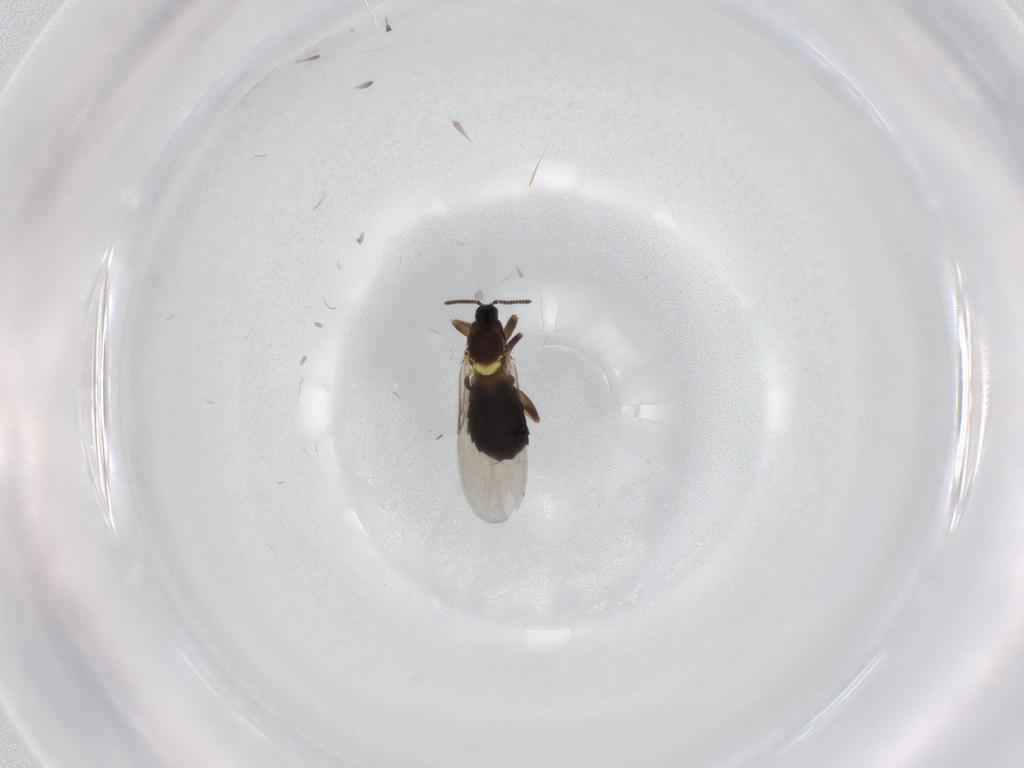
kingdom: Animalia
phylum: Arthropoda
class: Insecta
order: Diptera
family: Scatopsidae
